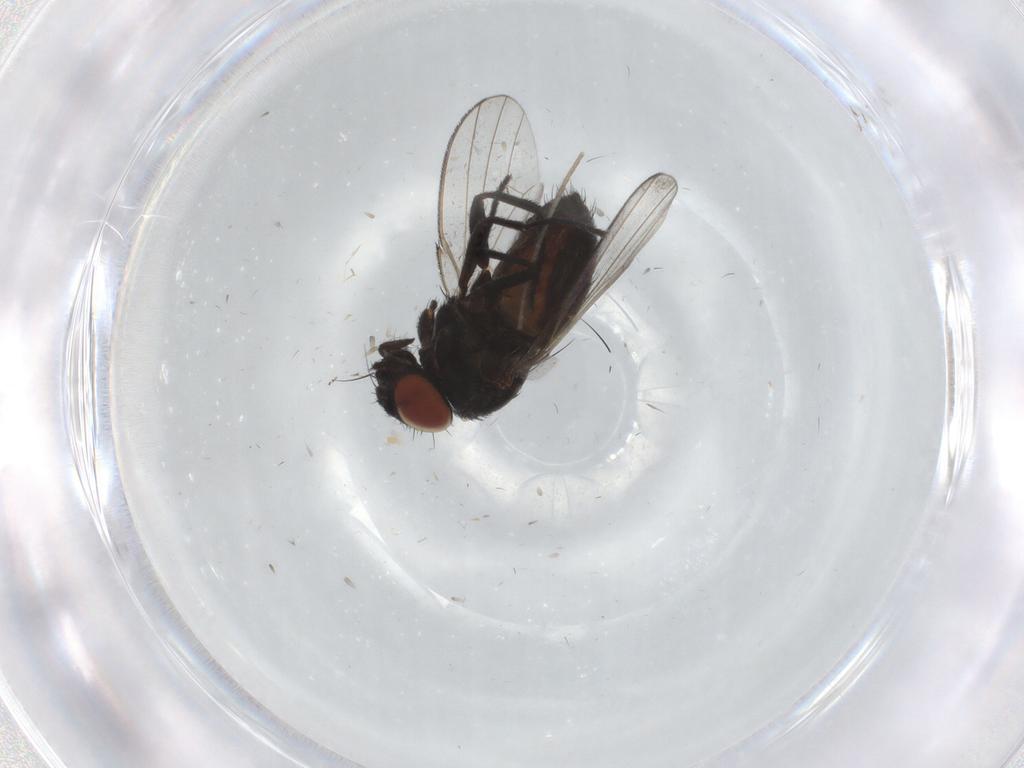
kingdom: Animalia
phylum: Arthropoda
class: Insecta
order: Diptera
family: Milichiidae
